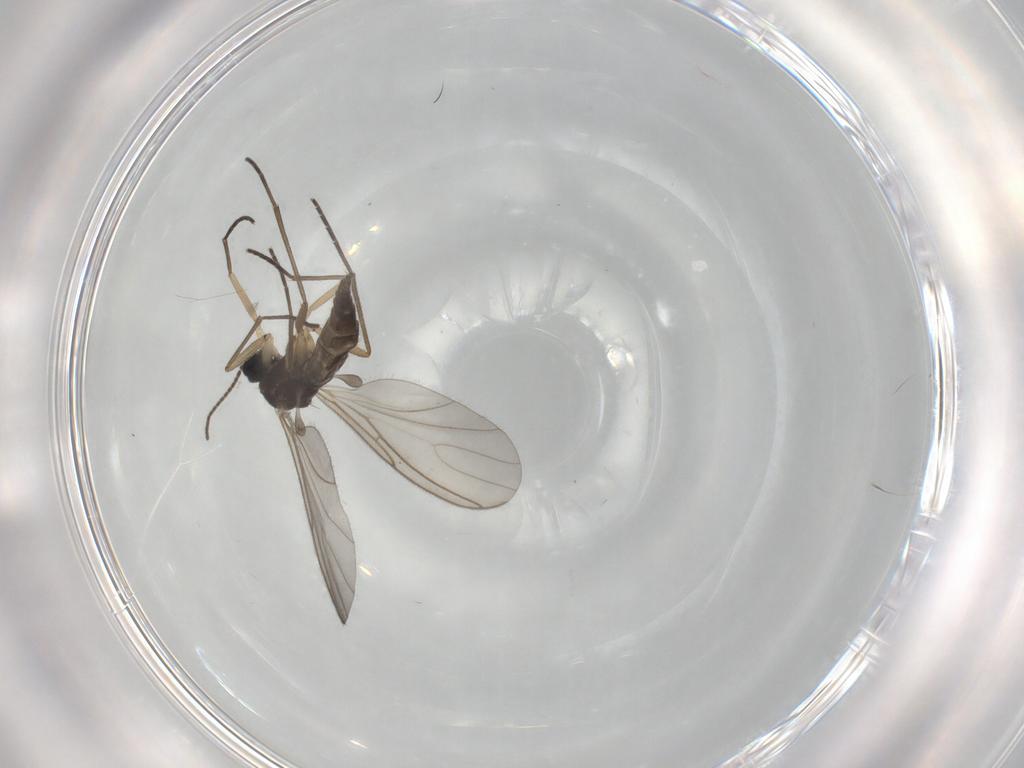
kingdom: Animalia
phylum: Arthropoda
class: Insecta
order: Diptera
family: Sciaridae
